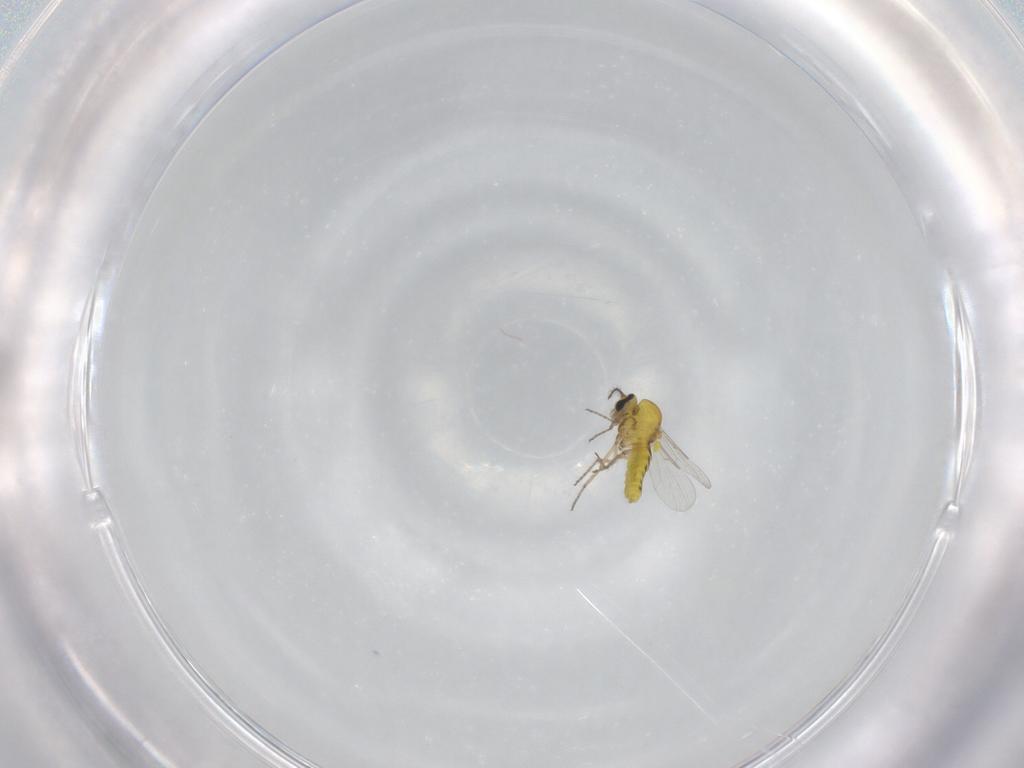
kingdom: Animalia
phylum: Arthropoda
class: Insecta
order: Diptera
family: Ceratopogonidae
